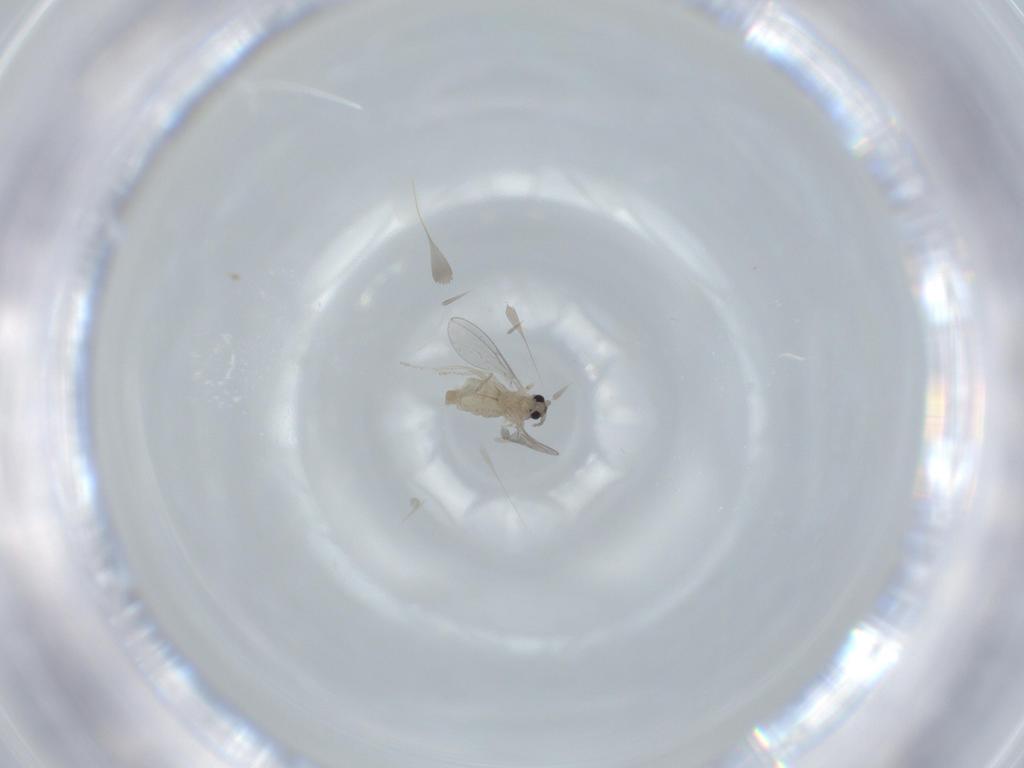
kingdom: Animalia
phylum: Arthropoda
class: Insecta
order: Diptera
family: Cecidomyiidae
